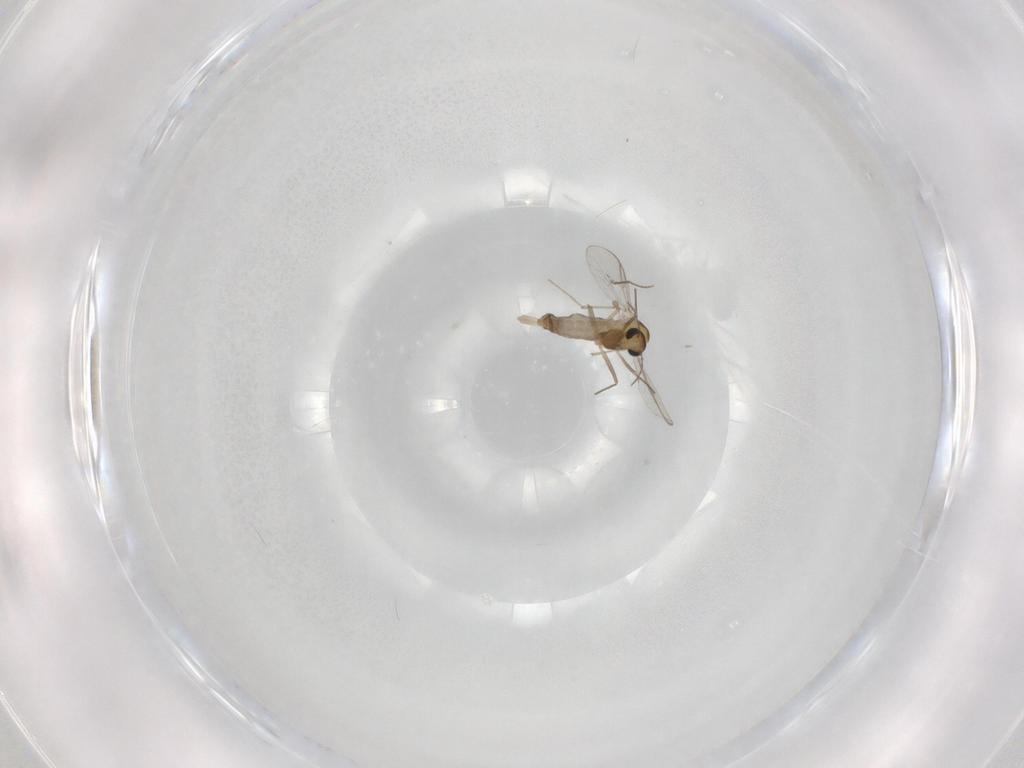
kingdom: Animalia
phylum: Arthropoda
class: Insecta
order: Diptera
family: Chironomidae
